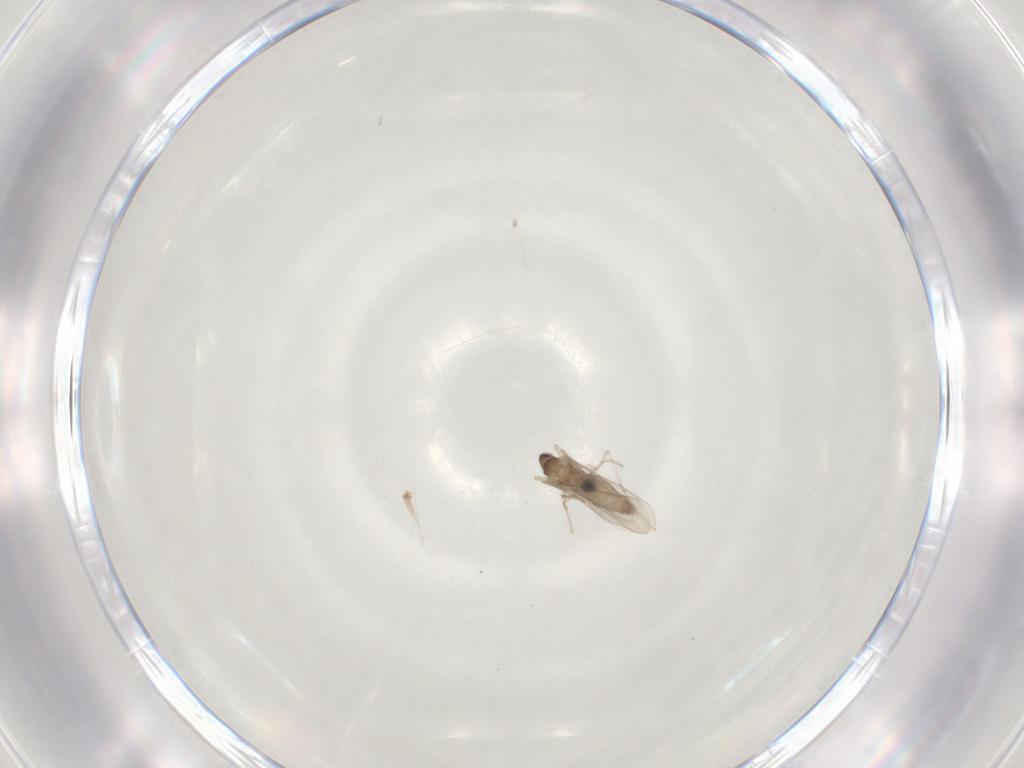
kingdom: Animalia
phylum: Arthropoda
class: Insecta
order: Diptera
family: Cecidomyiidae
